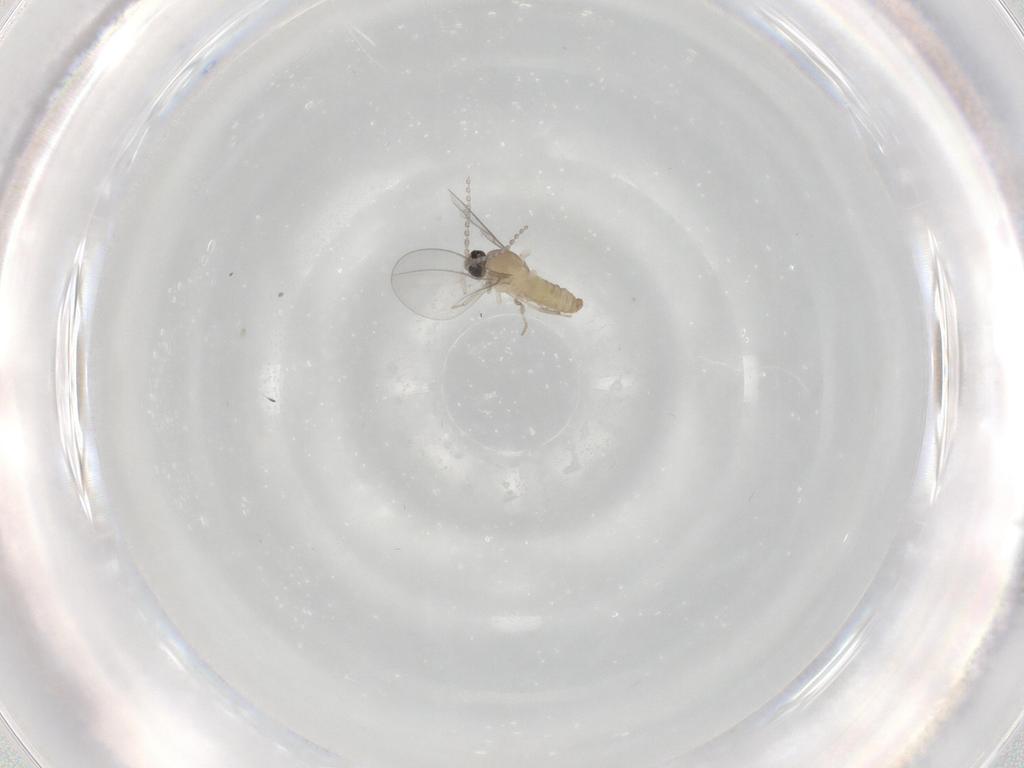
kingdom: Animalia
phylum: Arthropoda
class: Insecta
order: Diptera
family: Cecidomyiidae
